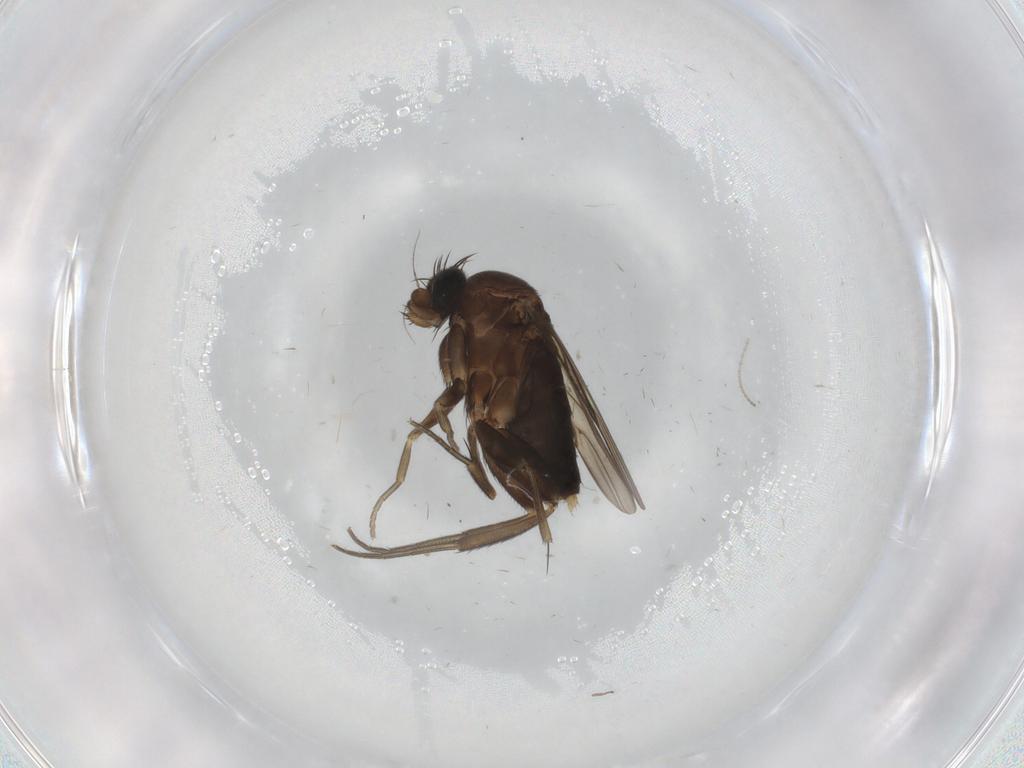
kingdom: Animalia
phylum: Arthropoda
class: Insecta
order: Diptera
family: Phoridae
